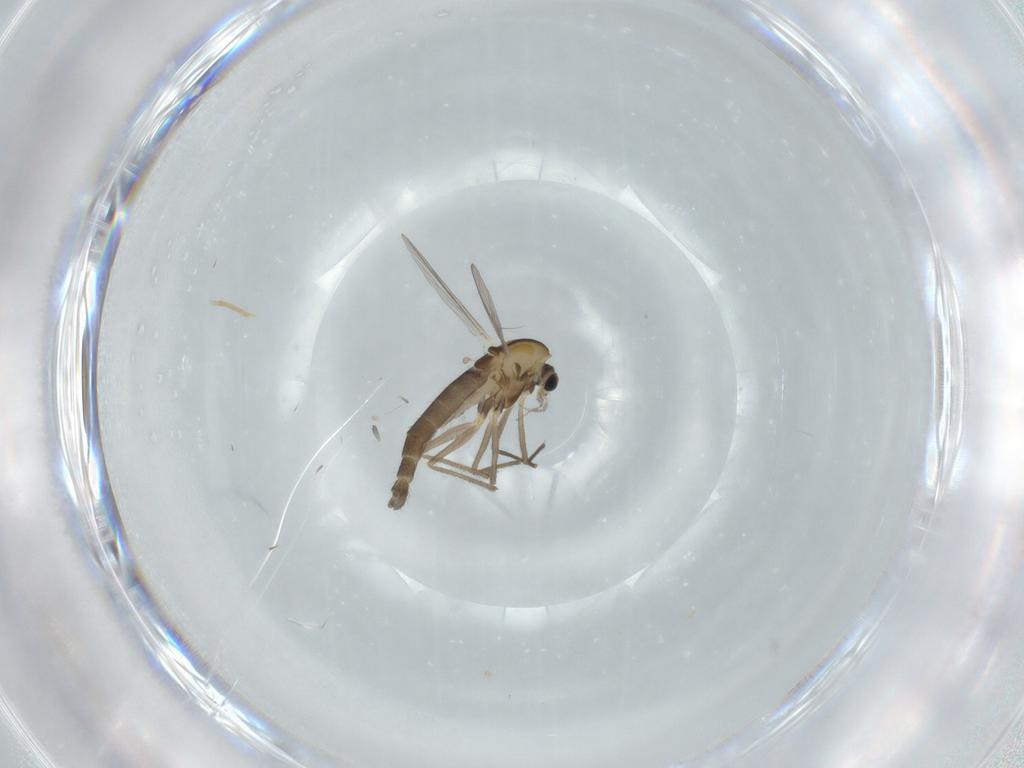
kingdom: Animalia
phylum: Arthropoda
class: Insecta
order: Diptera
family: Chironomidae
